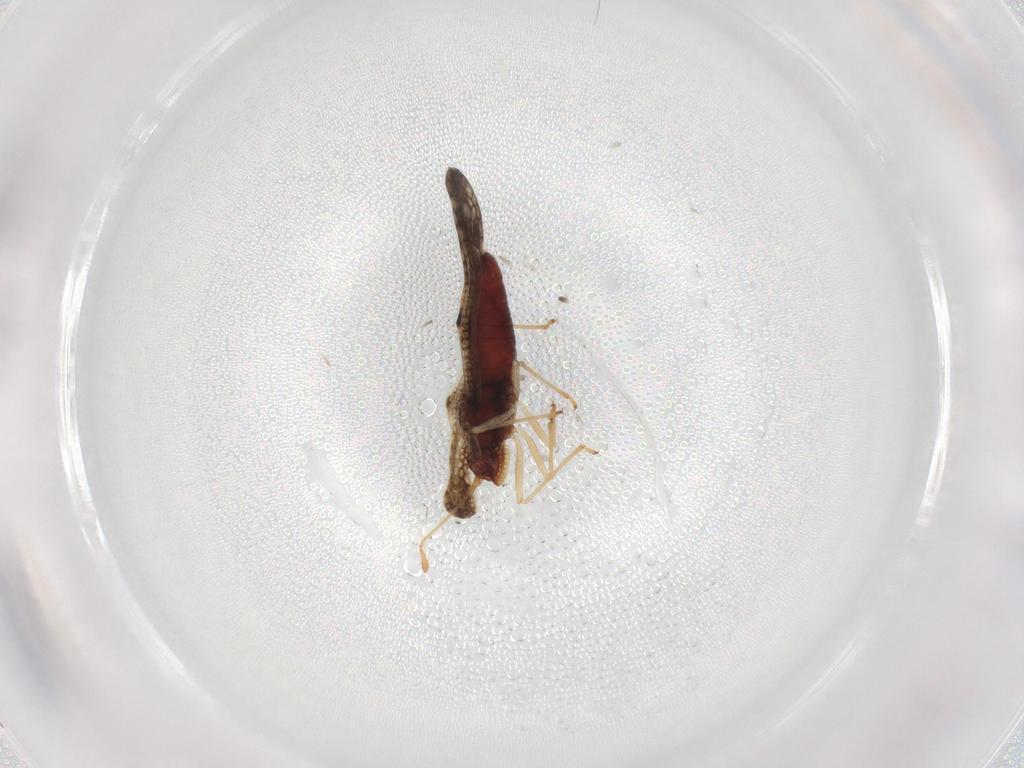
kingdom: Animalia
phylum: Arthropoda
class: Insecta
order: Hemiptera
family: Tingidae
